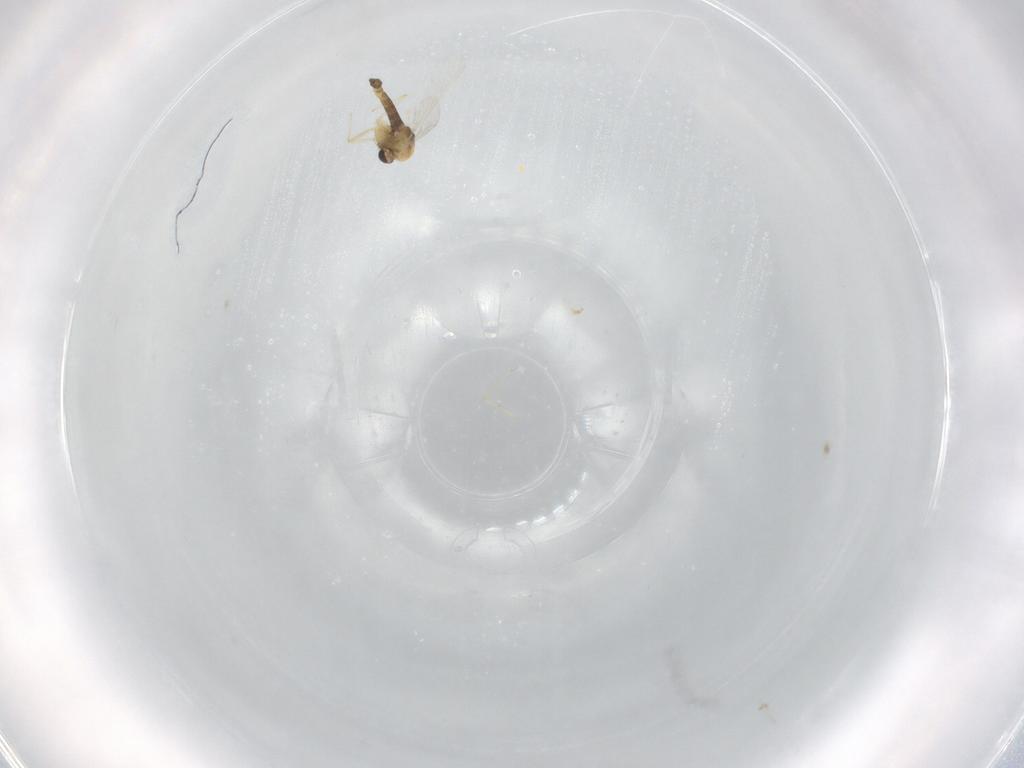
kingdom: Animalia
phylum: Arthropoda
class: Insecta
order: Diptera
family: Chironomidae
